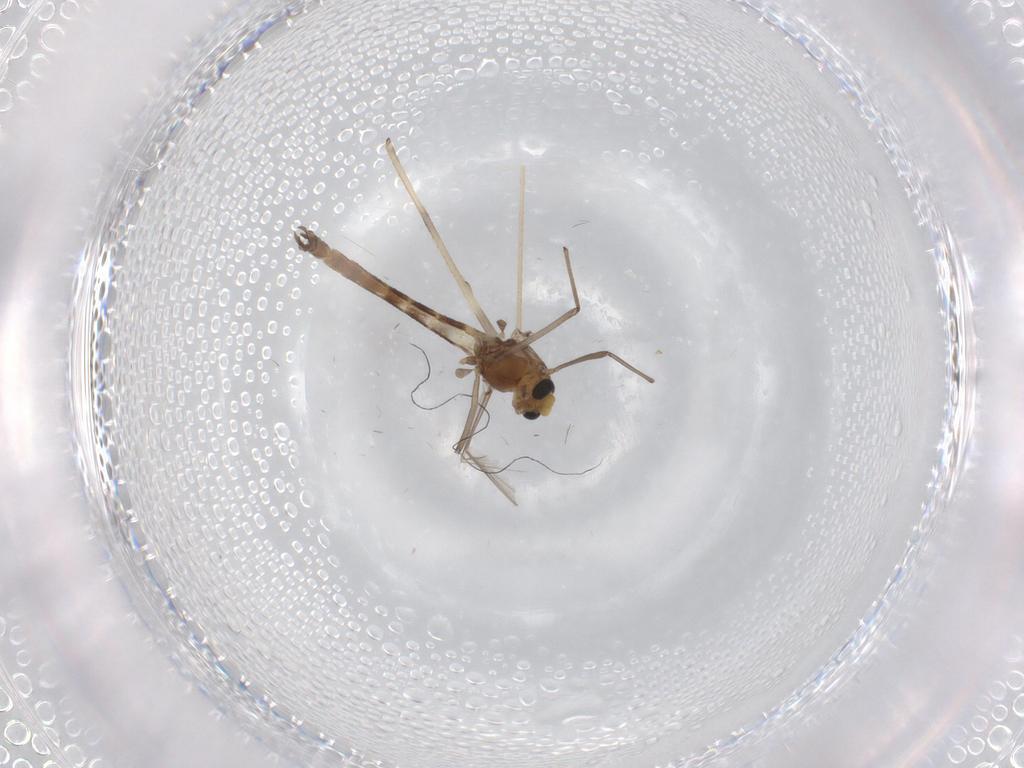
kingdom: Animalia
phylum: Arthropoda
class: Insecta
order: Diptera
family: Chironomidae
